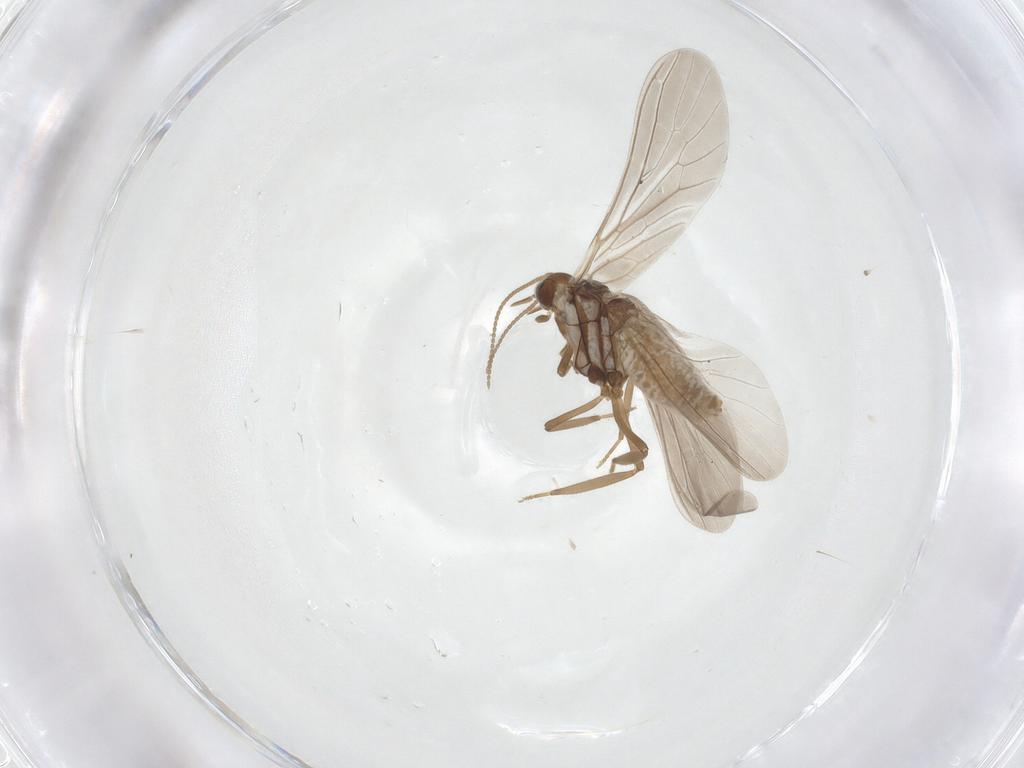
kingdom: Animalia
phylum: Arthropoda
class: Insecta
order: Neuroptera
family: Coniopterygidae
